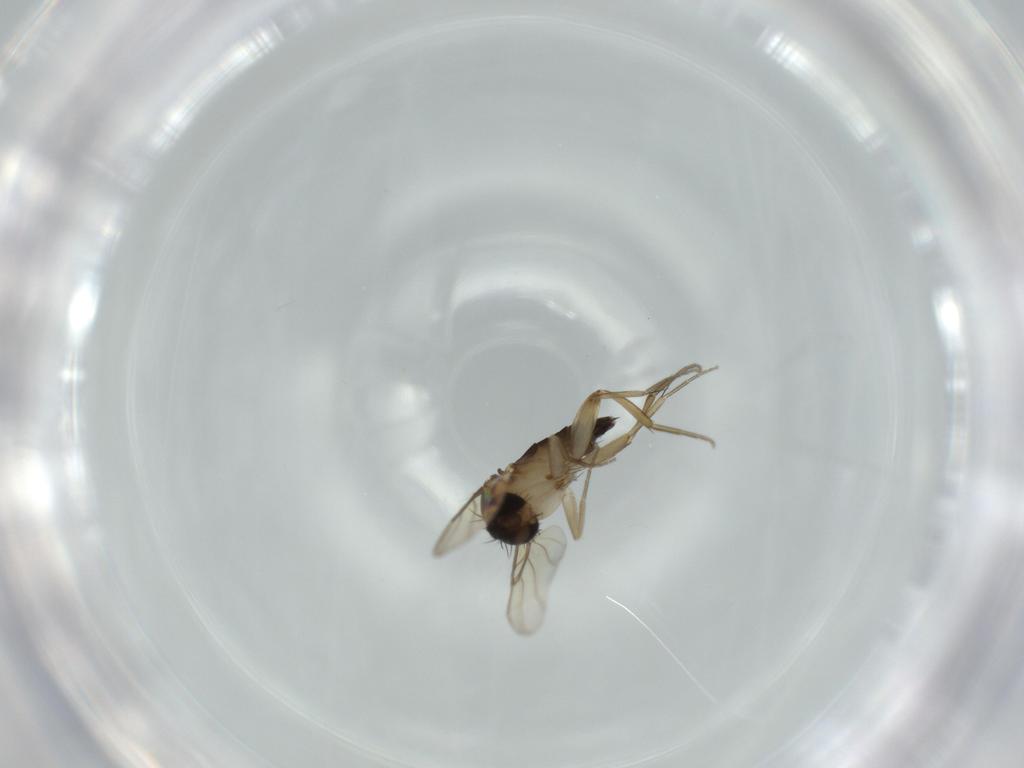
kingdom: Animalia
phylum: Arthropoda
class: Insecta
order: Diptera
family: Phoridae
